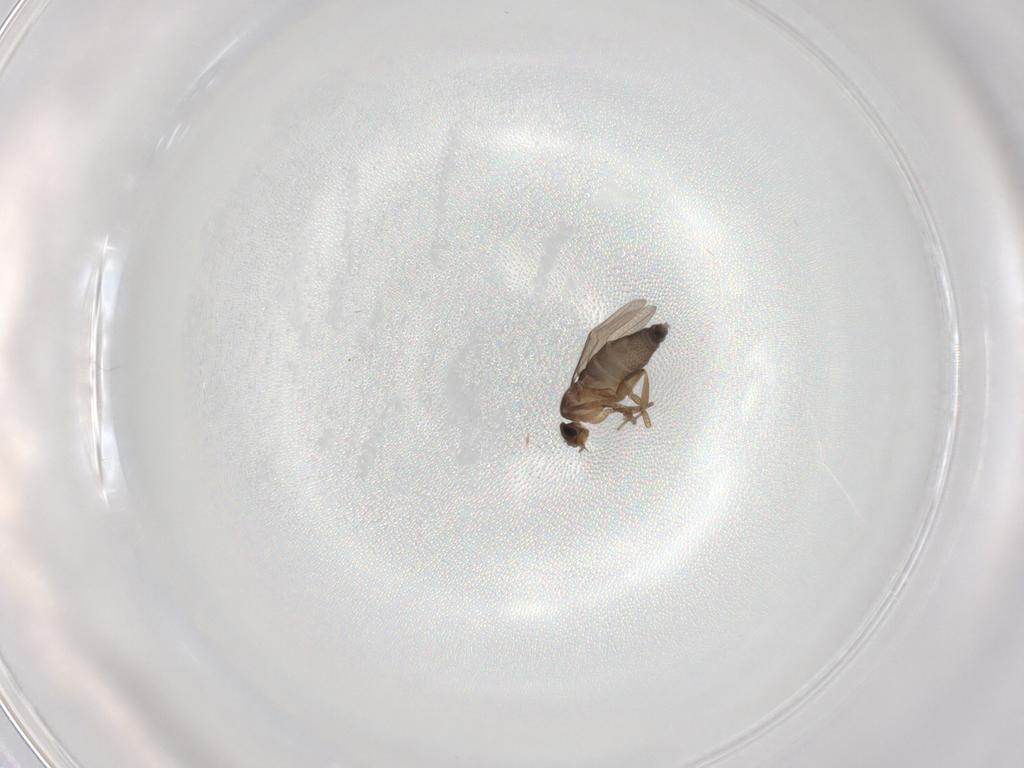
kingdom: Animalia
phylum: Arthropoda
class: Insecta
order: Diptera
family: Phoridae
